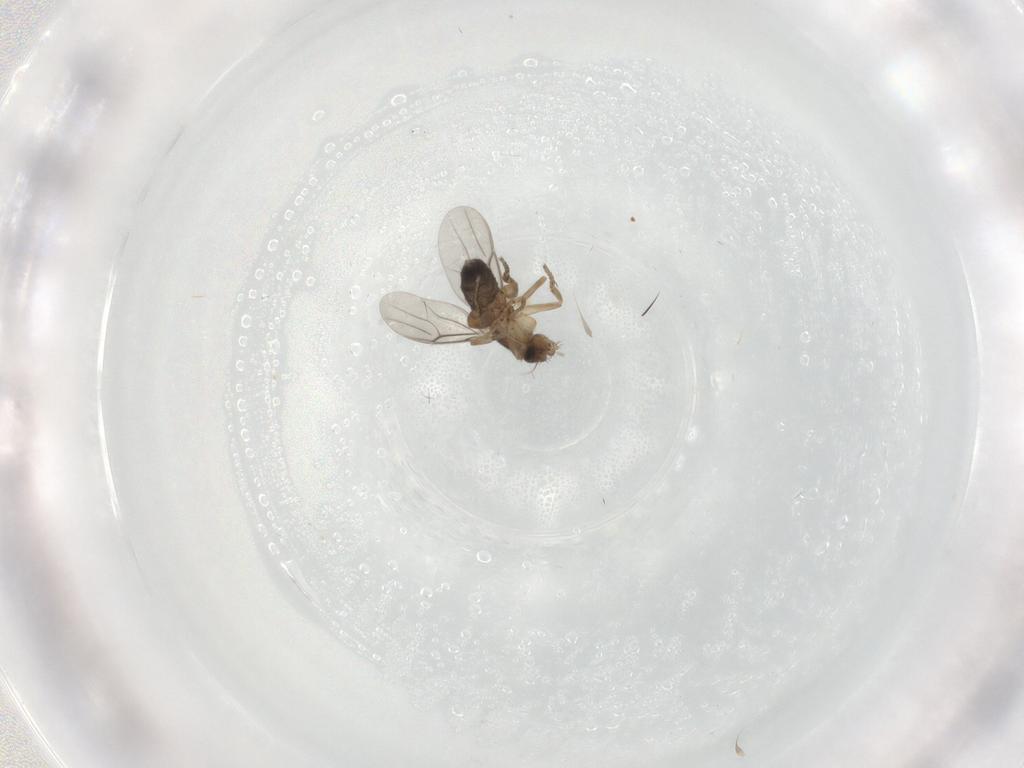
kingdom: Animalia
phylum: Arthropoda
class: Insecta
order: Diptera
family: Phoridae
